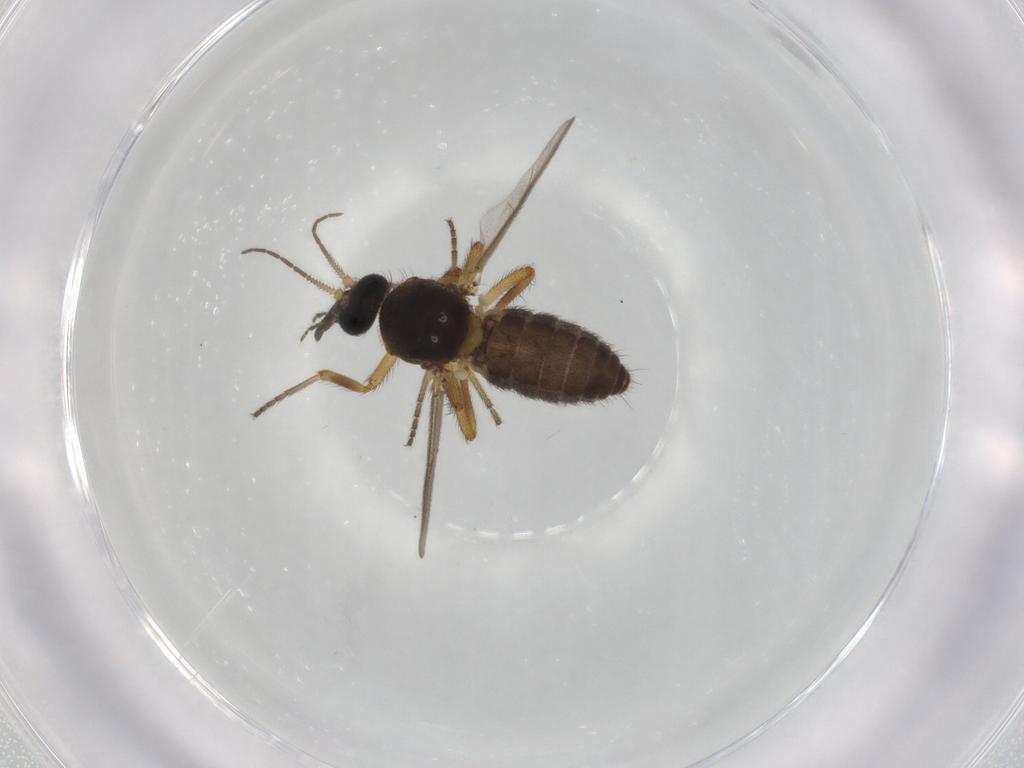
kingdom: Animalia
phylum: Arthropoda
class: Insecta
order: Diptera
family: Ceratopogonidae
